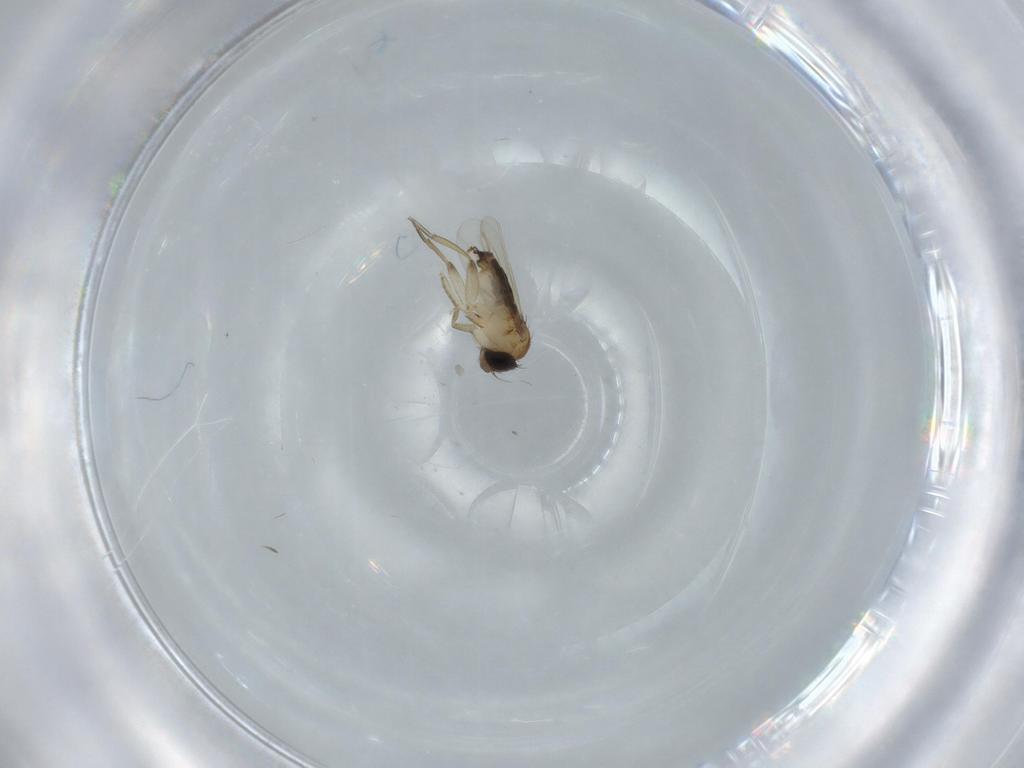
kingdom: Animalia
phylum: Arthropoda
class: Insecta
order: Diptera
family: Phoridae
